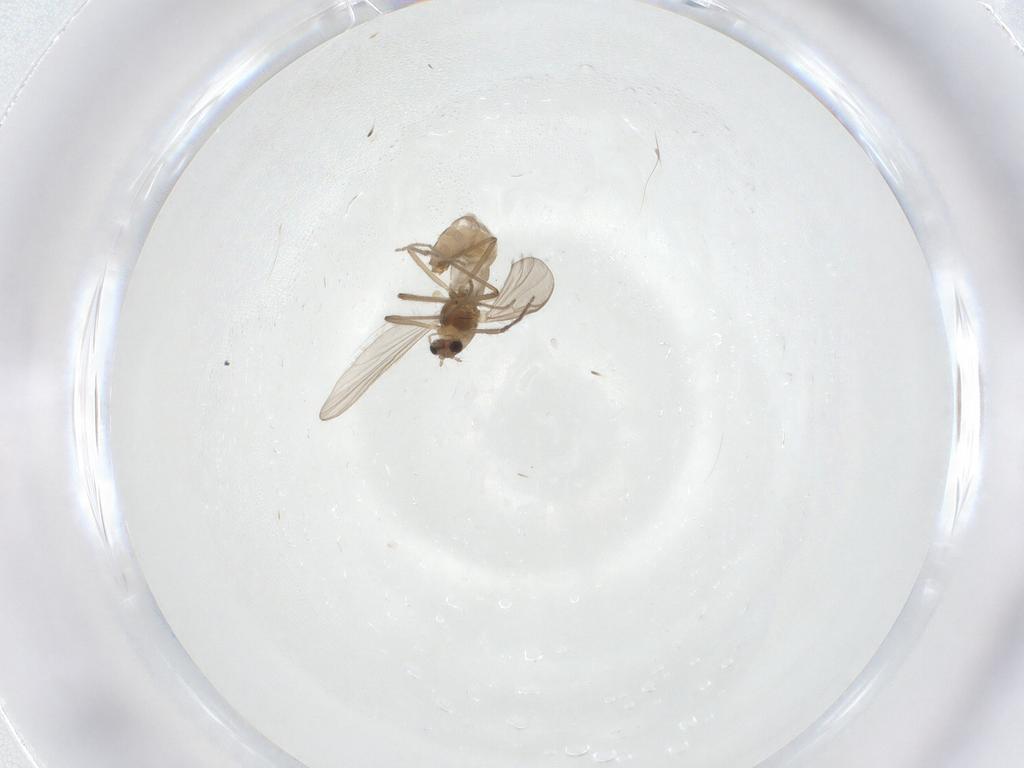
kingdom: Animalia
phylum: Arthropoda
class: Insecta
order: Diptera
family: Chironomidae
